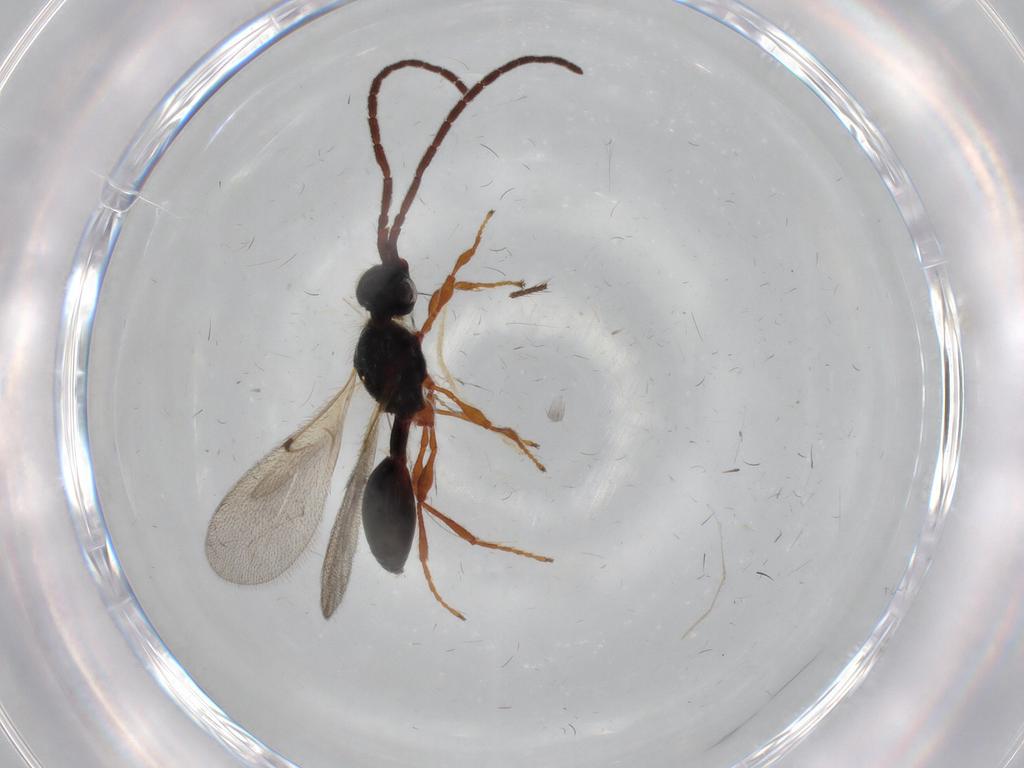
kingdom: Animalia
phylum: Arthropoda
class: Insecta
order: Hymenoptera
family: Diapriidae
